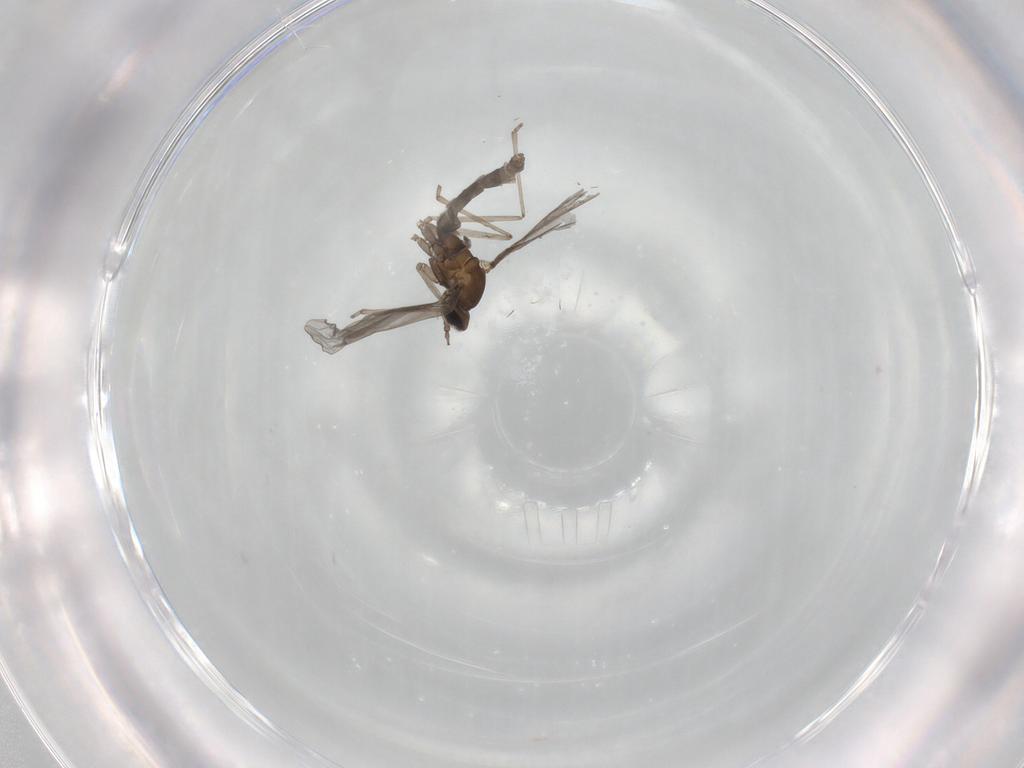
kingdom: Animalia
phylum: Arthropoda
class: Insecta
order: Diptera
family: Cecidomyiidae
